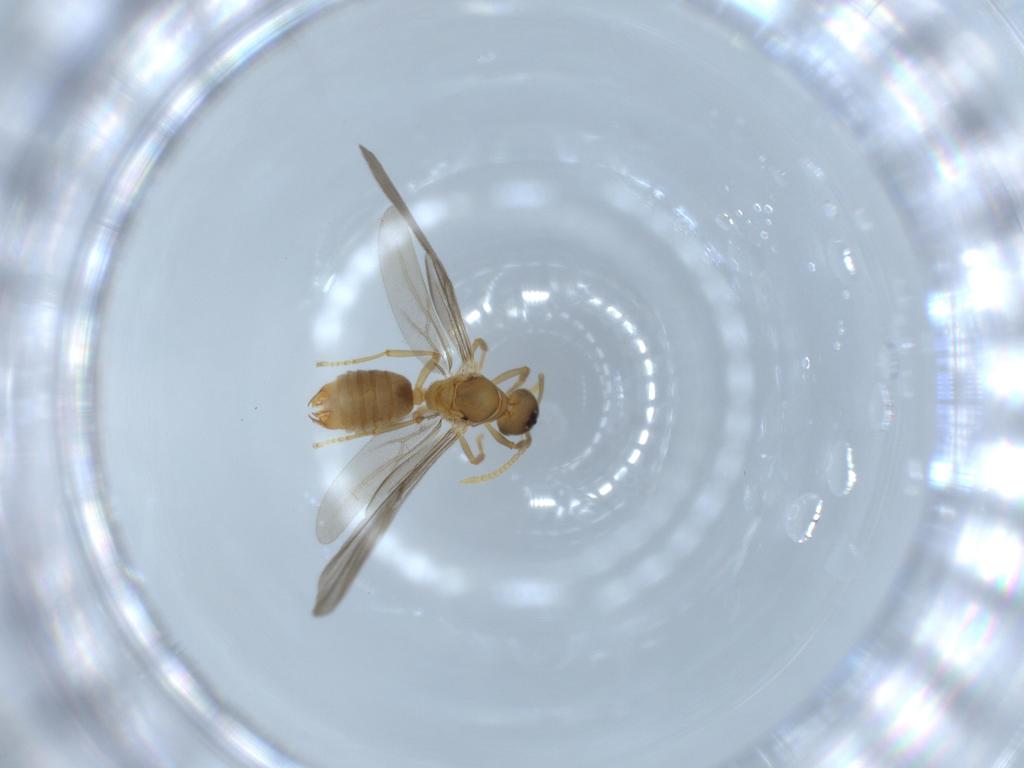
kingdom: Animalia
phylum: Arthropoda
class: Insecta
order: Hymenoptera
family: Formicidae
